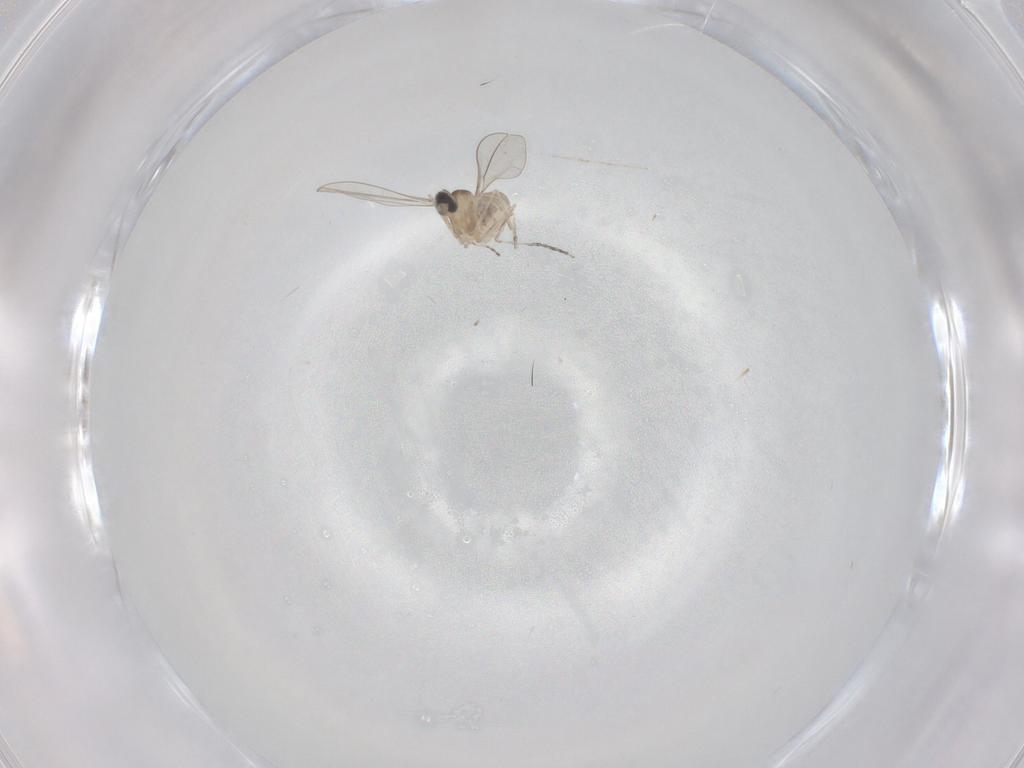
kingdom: Animalia
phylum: Arthropoda
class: Insecta
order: Diptera
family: Cecidomyiidae
